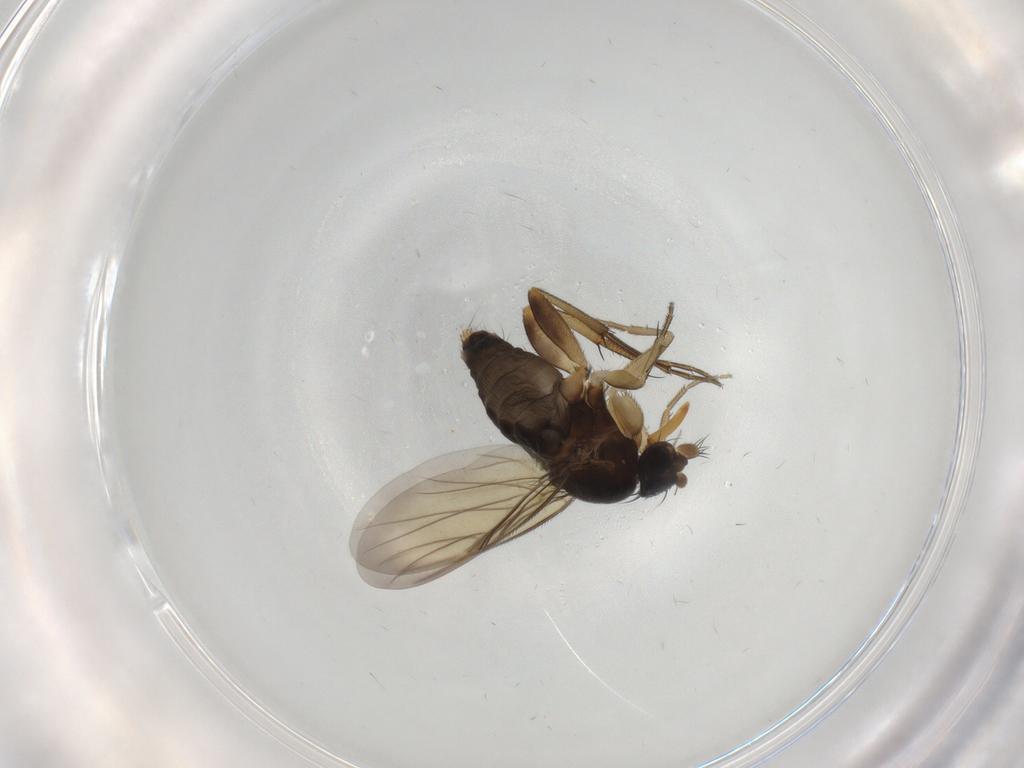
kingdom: Animalia
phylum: Arthropoda
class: Insecta
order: Diptera
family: Phoridae
